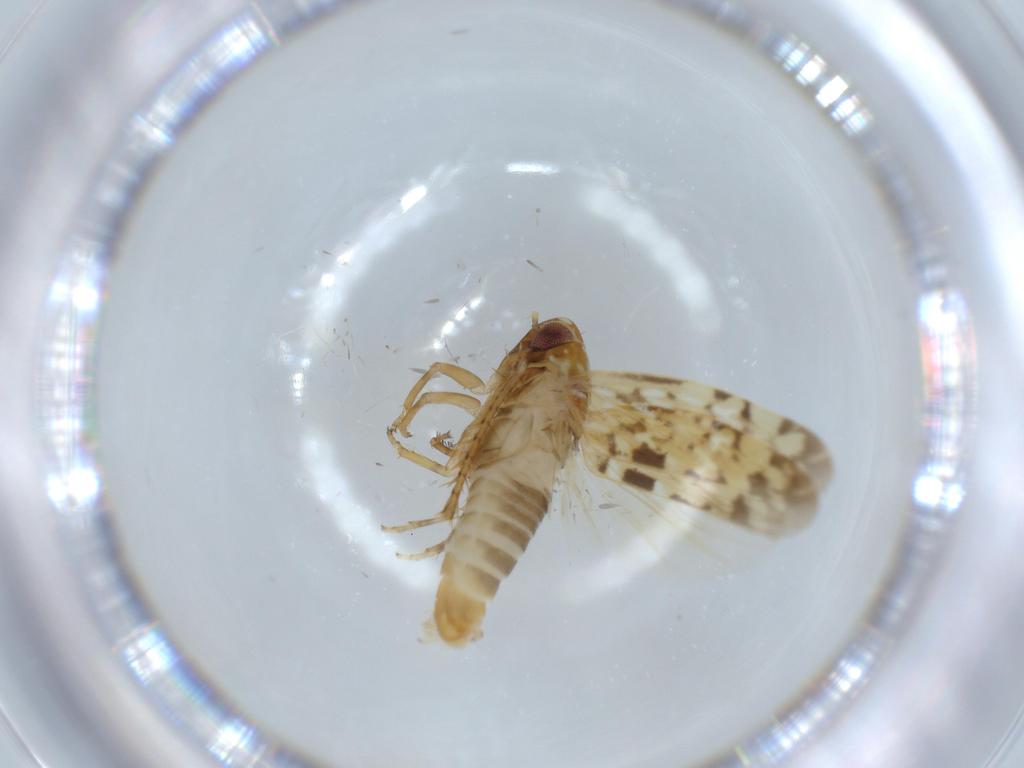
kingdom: Animalia
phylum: Arthropoda
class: Insecta
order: Hemiptera
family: Cicadellidae
